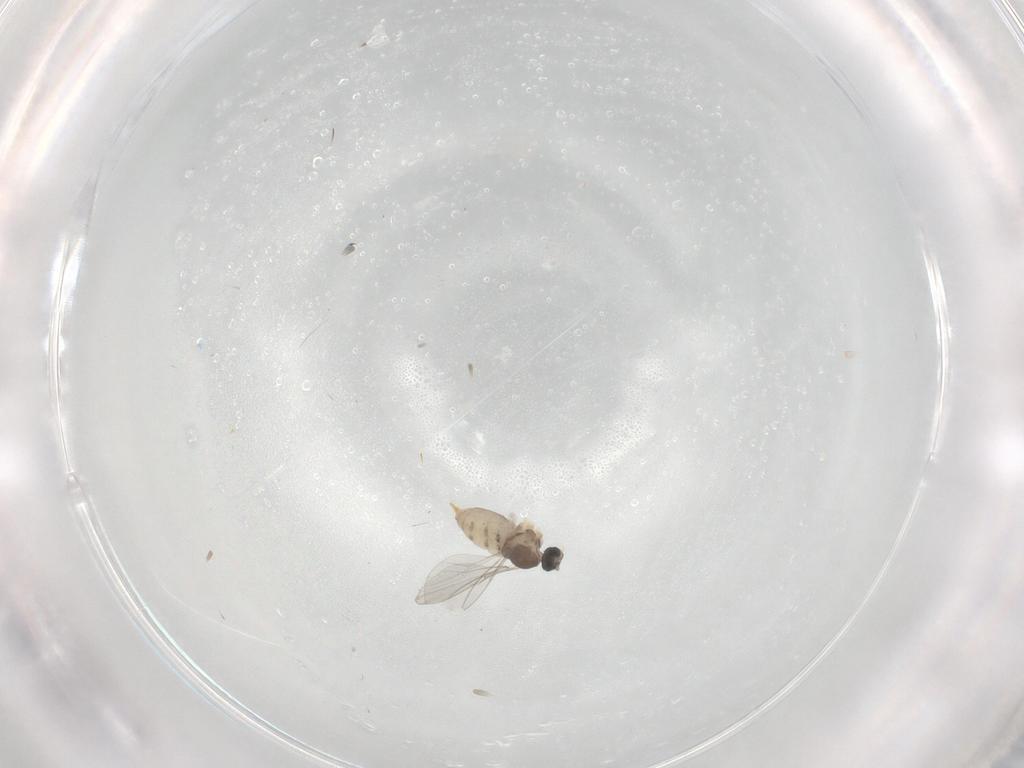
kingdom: Animalia
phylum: Arthropoda
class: Insecta
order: Diptera
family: Cecidomyiidae
